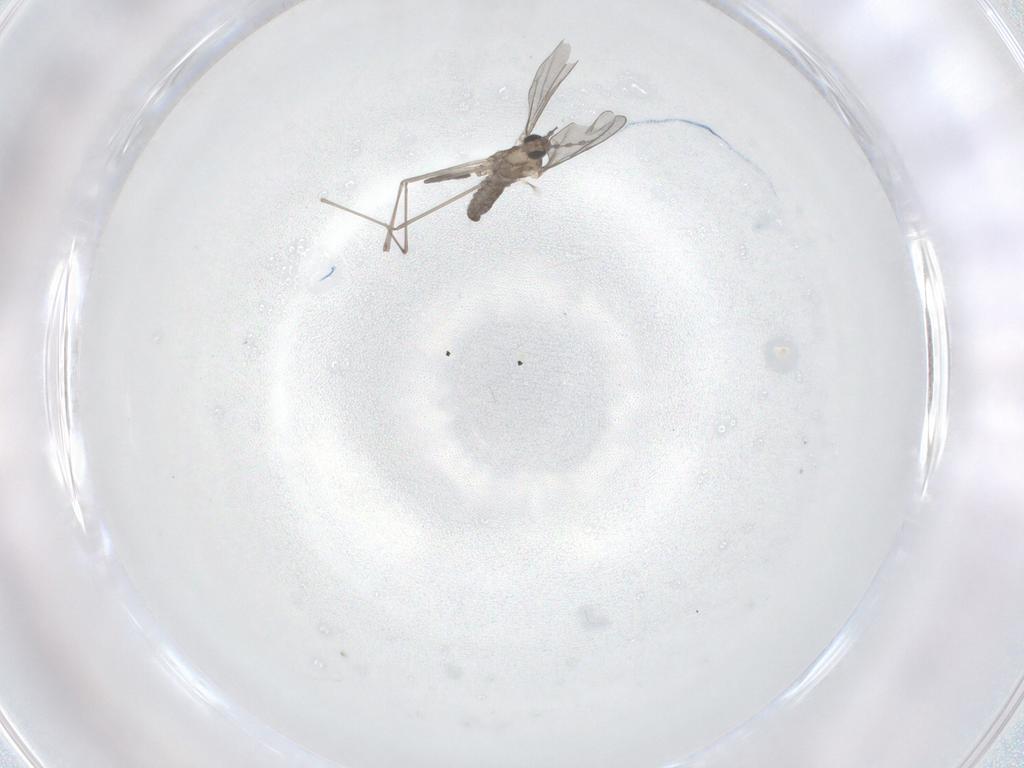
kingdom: Animalia
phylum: Arthropoda
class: Insecta
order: Diptera
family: Cecidomyiidae
